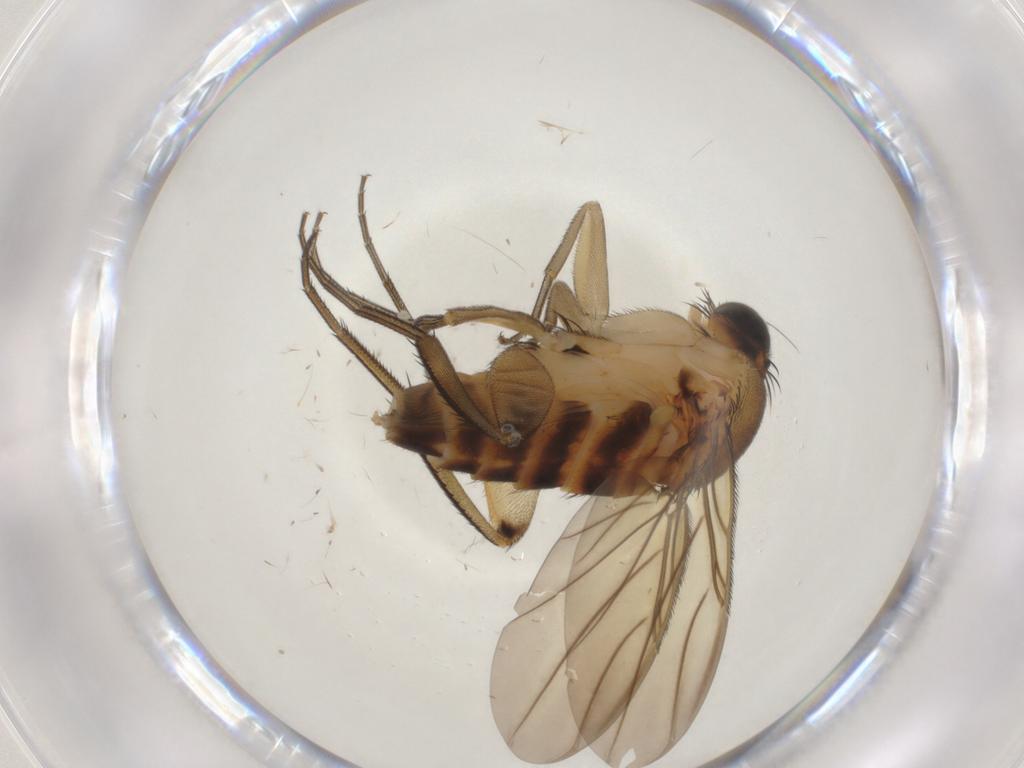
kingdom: Animalia
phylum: Arthropoda
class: Insecta
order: Diptera
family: Phoridae
